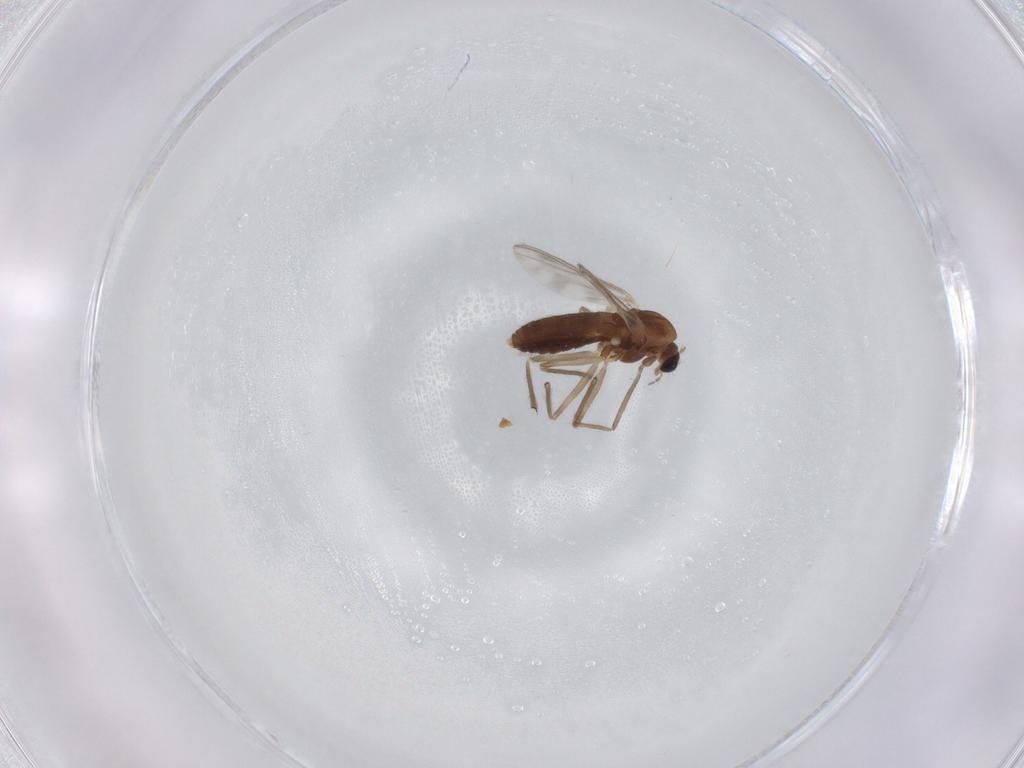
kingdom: Animalia
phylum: Arthropoda
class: Insecta
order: Diptera
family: Chironomidae
